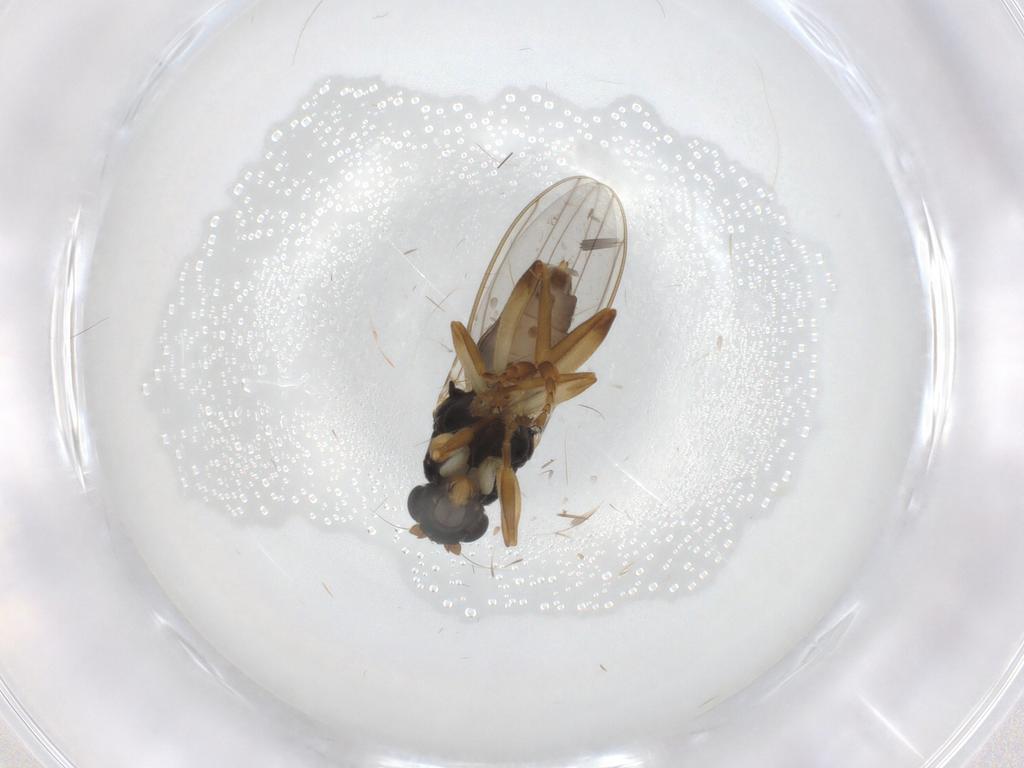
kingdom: Animalia
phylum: Arthropoda
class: Insecta
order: Diptera
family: Sphaeroceridae
